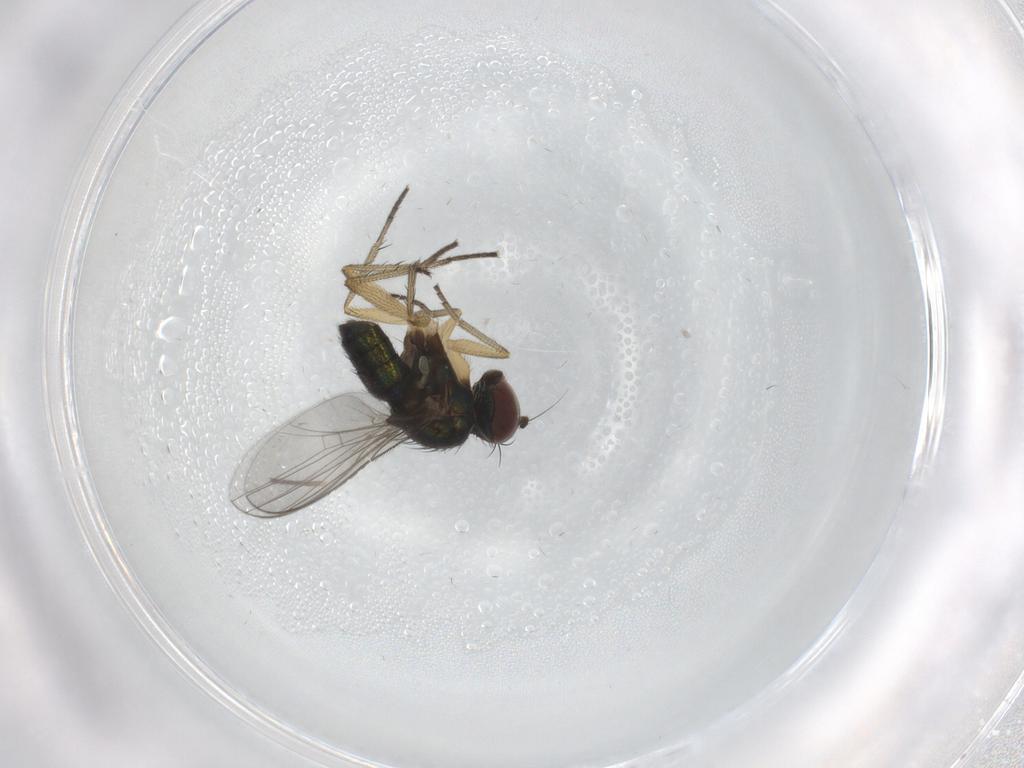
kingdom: Animalia
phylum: Arthropoda
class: Insecta
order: Diptera
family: Dolichopodidae
